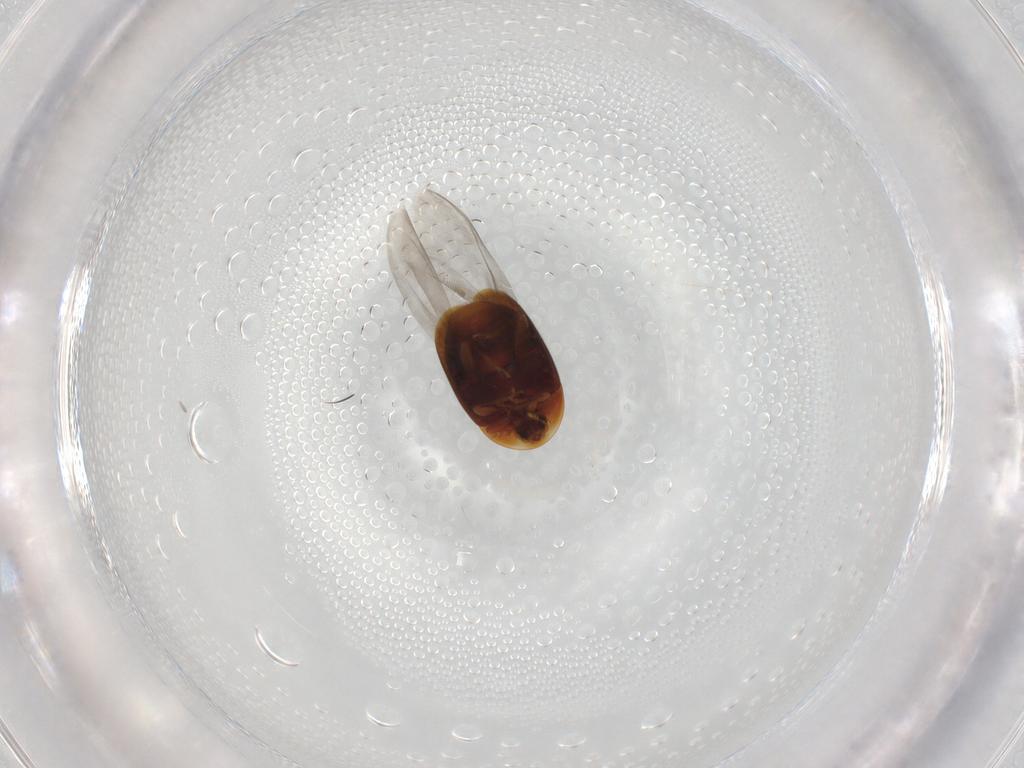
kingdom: Animalia
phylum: Arthropoda
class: Insecta
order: Coleoptera
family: Corylophidae
